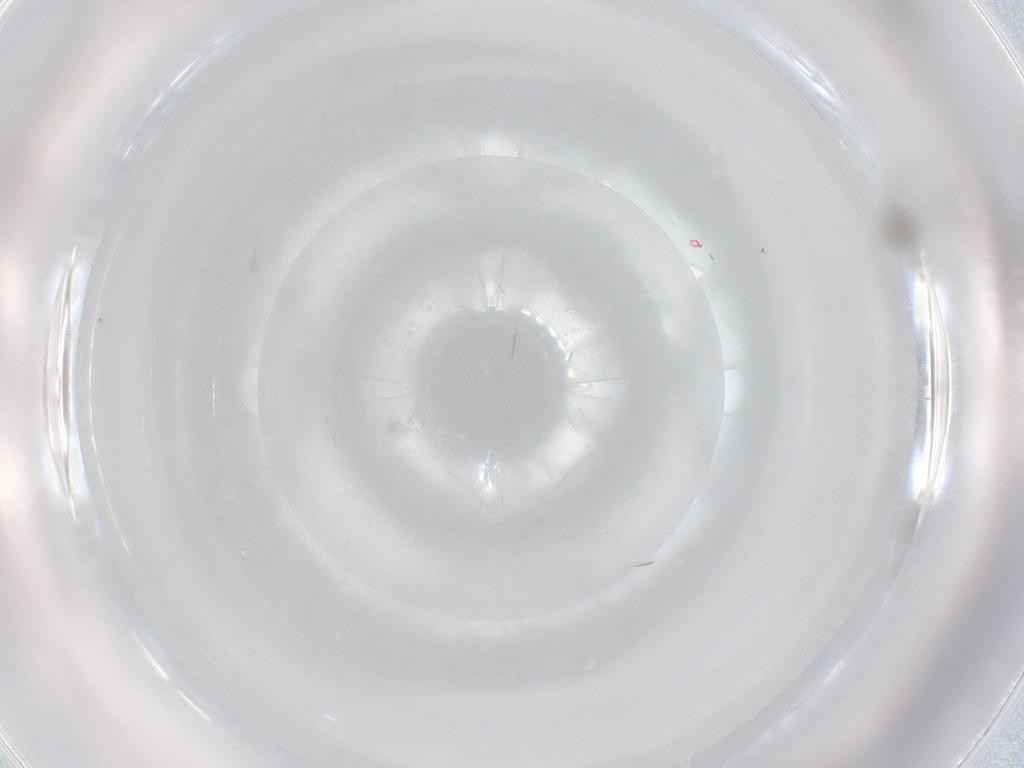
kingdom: Animalia
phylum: Arthropoda
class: Insecta
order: Diptera
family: Cecidomyiidae
